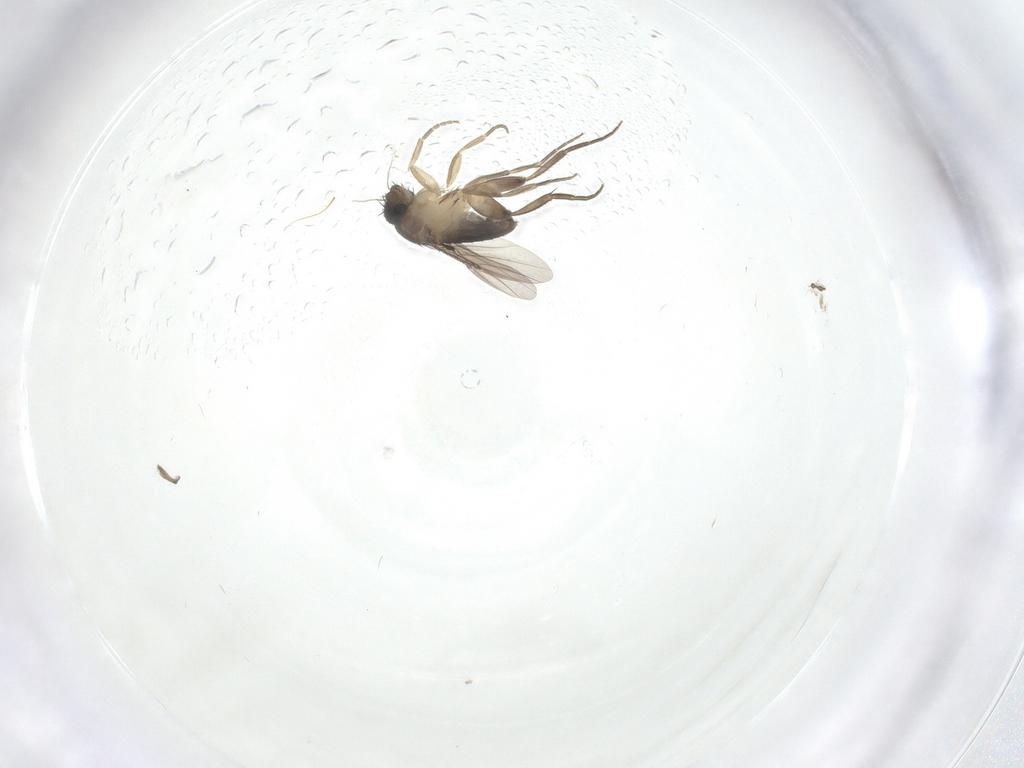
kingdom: Animalia
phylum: Arthropoda
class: Insecta
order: Diptera
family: Phoridae
